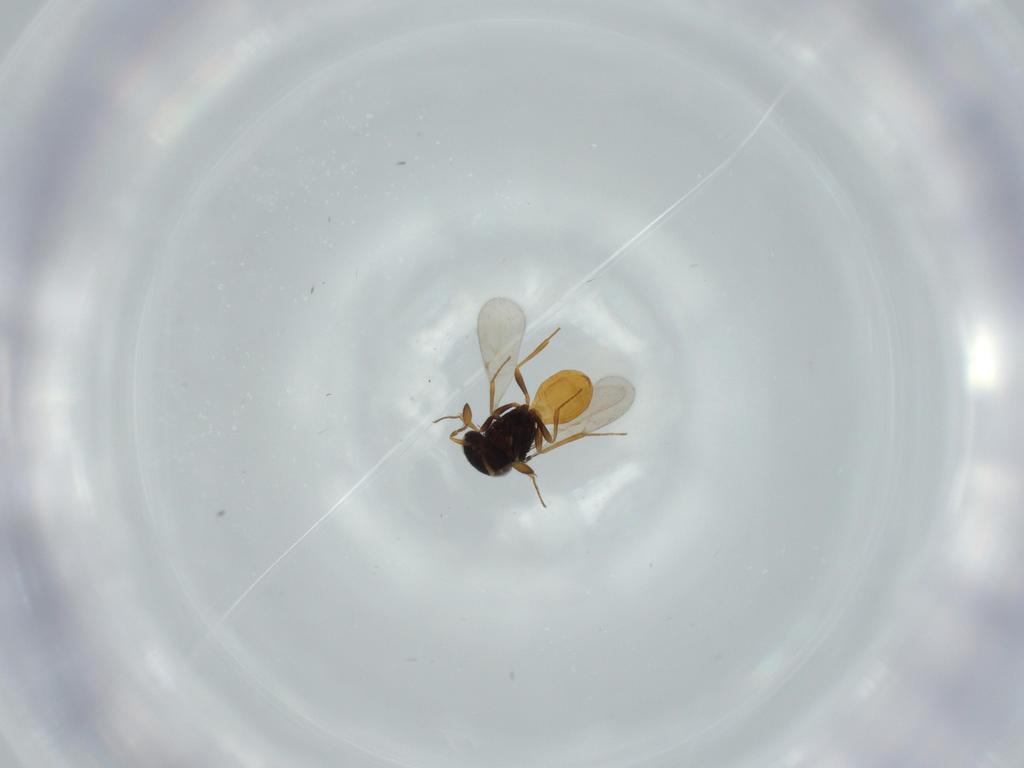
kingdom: Animalia
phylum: Arthropoda
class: Insecta
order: Hymenoptera
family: Scelionidae
